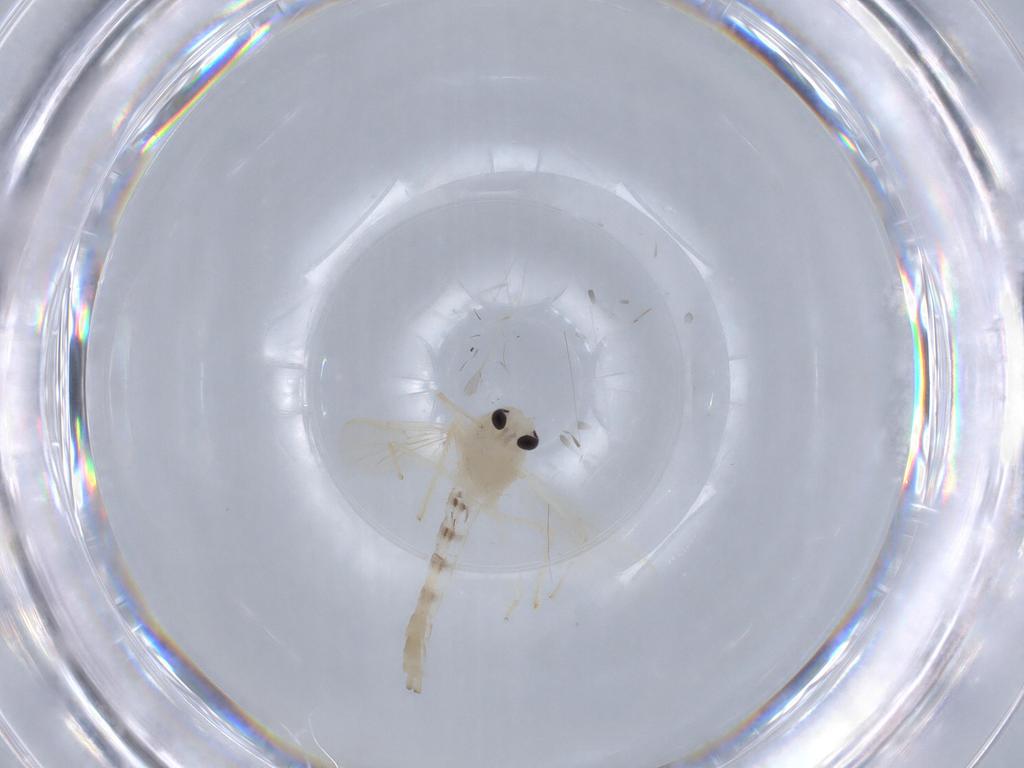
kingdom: Animalia
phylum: Arthropoda
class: Insecta
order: Diptera
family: Chironomidae
